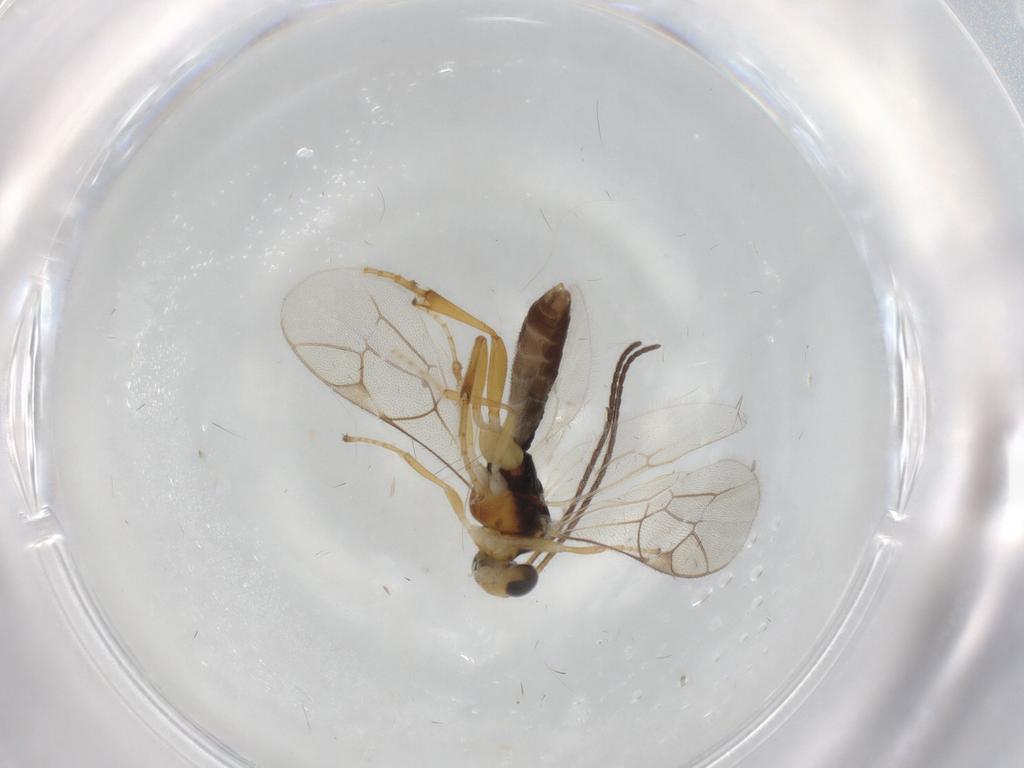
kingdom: Animalia
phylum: Arthropoda
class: Insecta
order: Hymenoptera
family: Ichneumonidae
